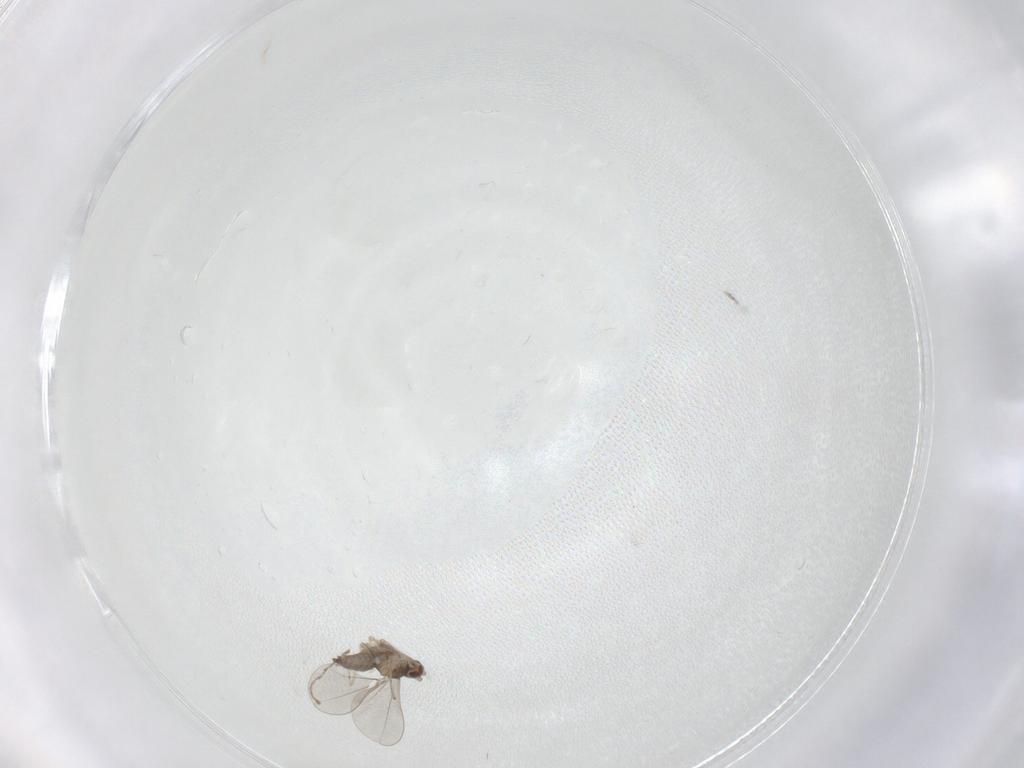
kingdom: Animalia
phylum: Arthropoda
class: Insecta
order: Diptera
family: Cecidomyiidae
